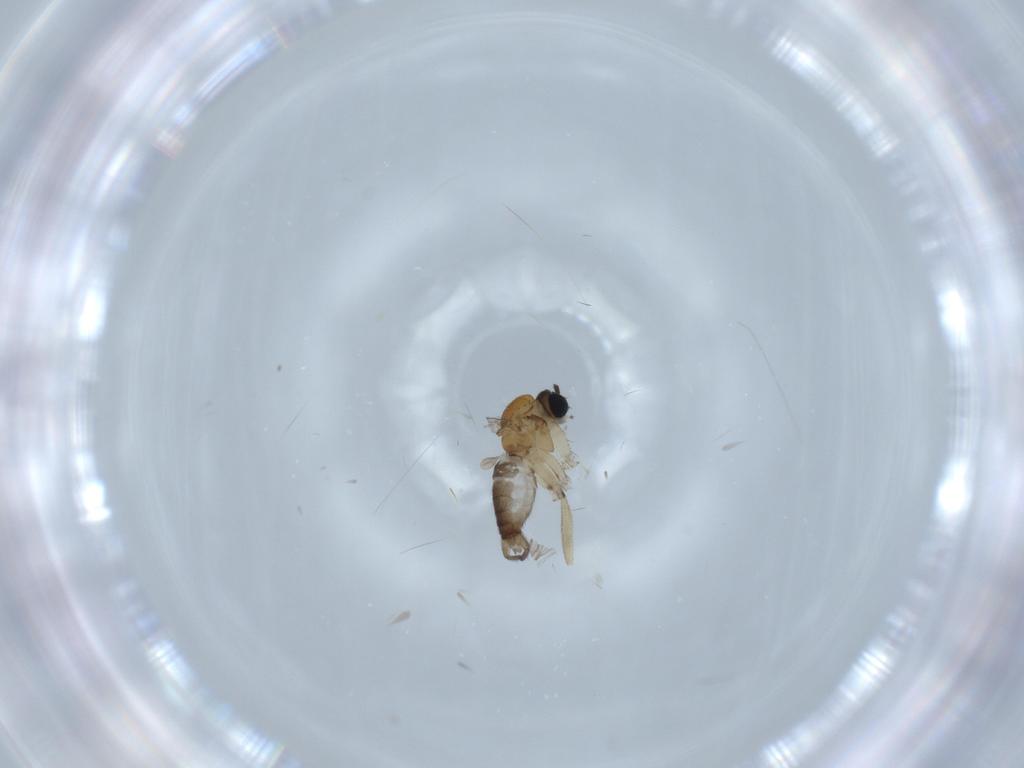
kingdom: Animalia
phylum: Arthropoda
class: Insecta
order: Diptera
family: Sciaridae
